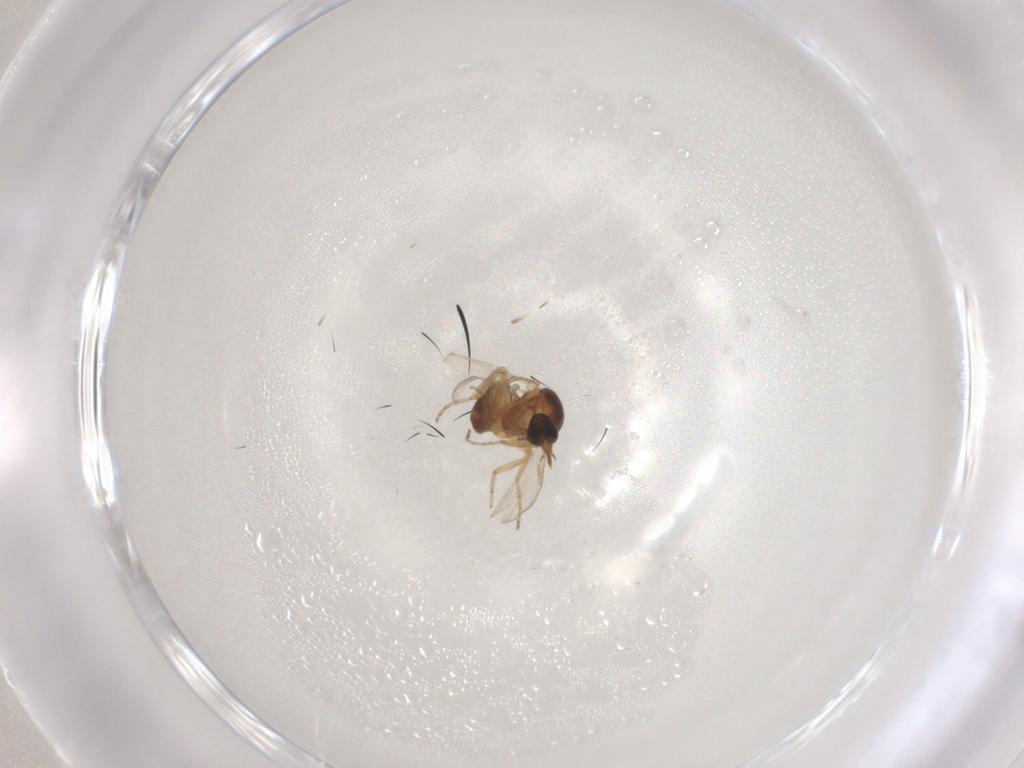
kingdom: Animalia
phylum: Arthropoda
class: Insecta
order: Diptera
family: Ceratopogonidae
